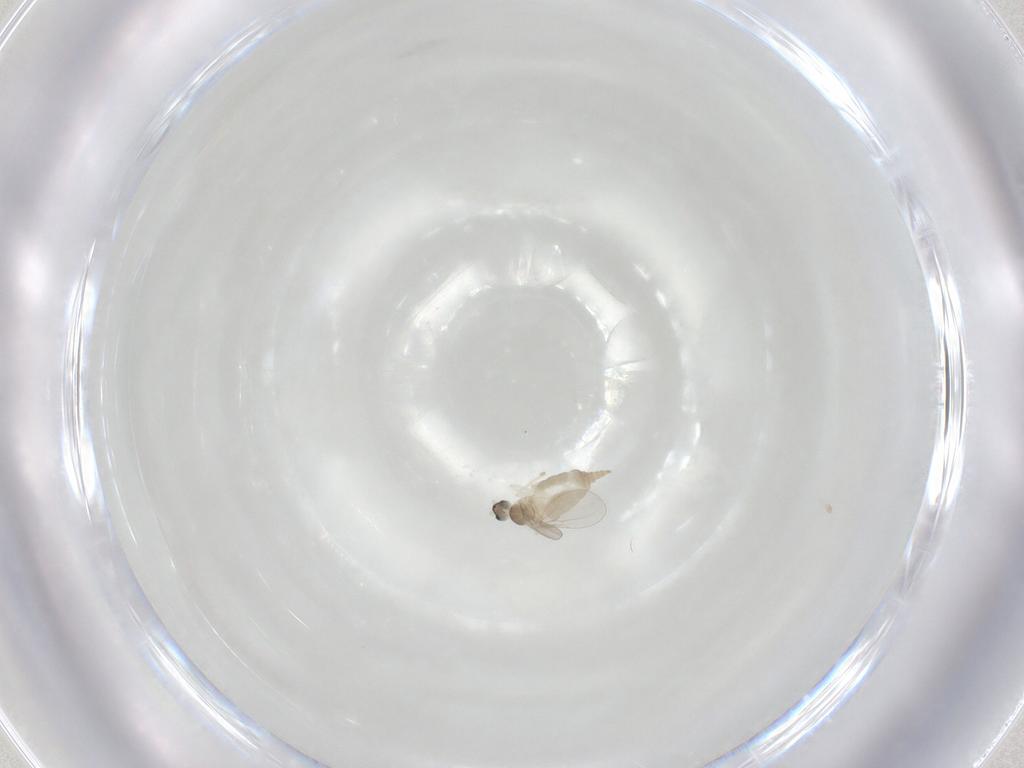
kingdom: Animalia
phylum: Arthropoda
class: Insecta
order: Diptera
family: Cecidomyiidae
